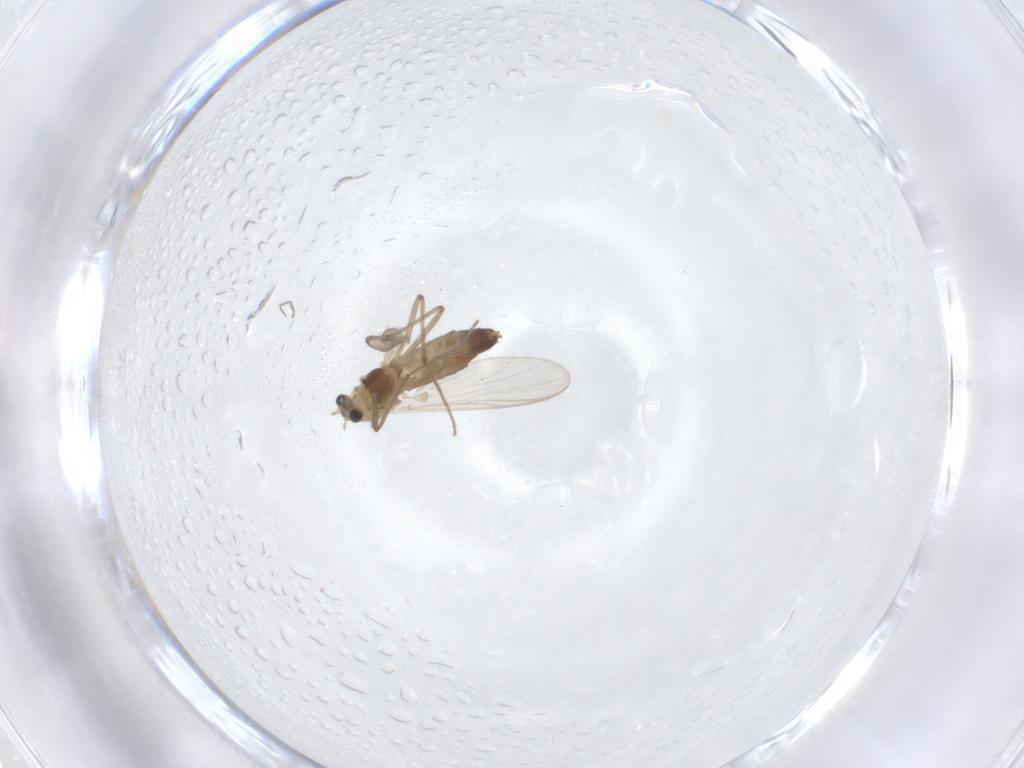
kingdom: Animalia
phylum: Arthropoda
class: Insecta
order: Diptera
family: Chironomidae
